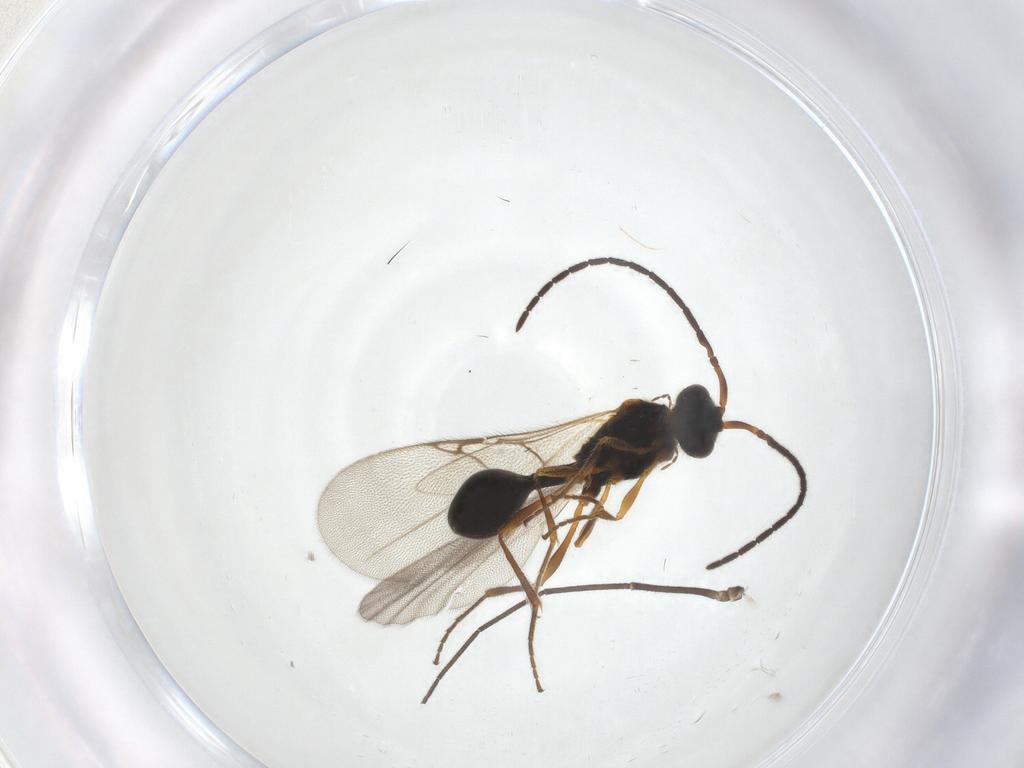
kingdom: Animalia
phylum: Arthropoda
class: Insecta
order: Hymenoptera
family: Diapriidae
